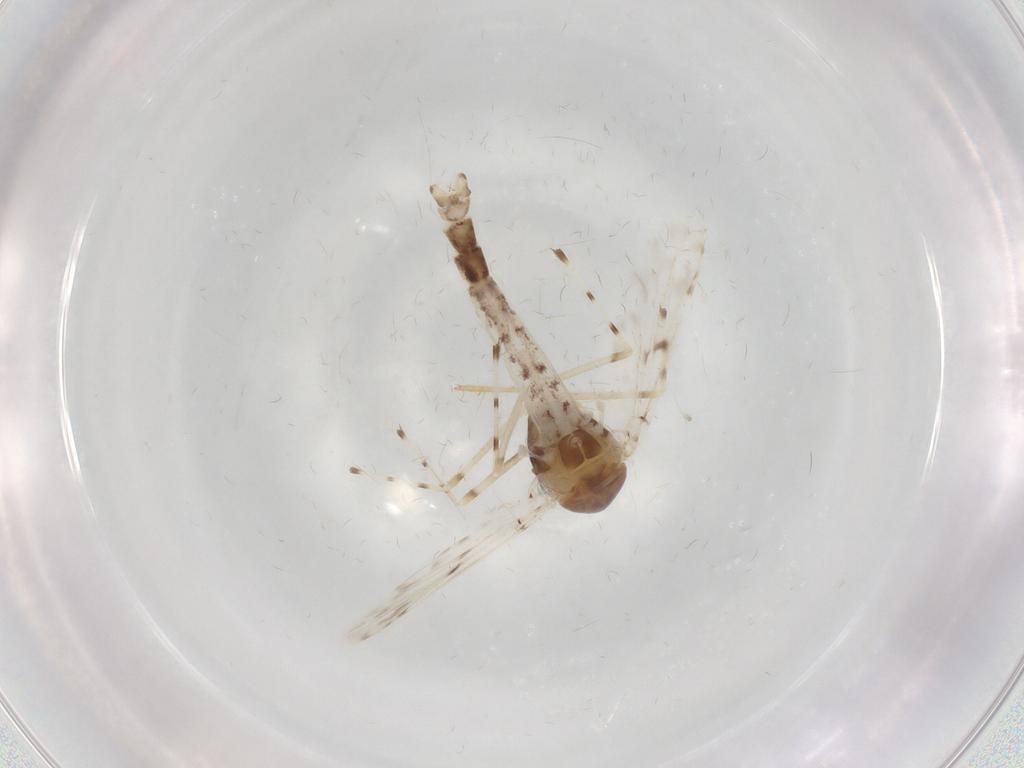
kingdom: Animalia
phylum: Arthropoda
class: Insecta
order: Diptera
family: Chironomidae
